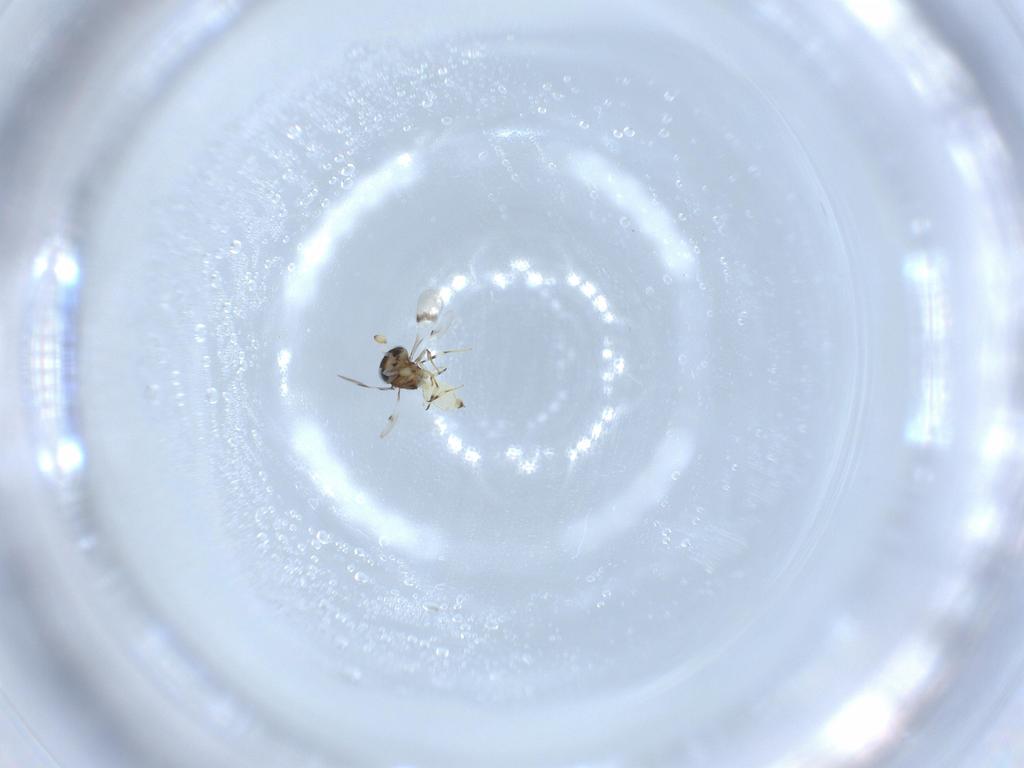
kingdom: Animalia
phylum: Arthropoda
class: Insecta
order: Hymenoptera
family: Scelionidae
